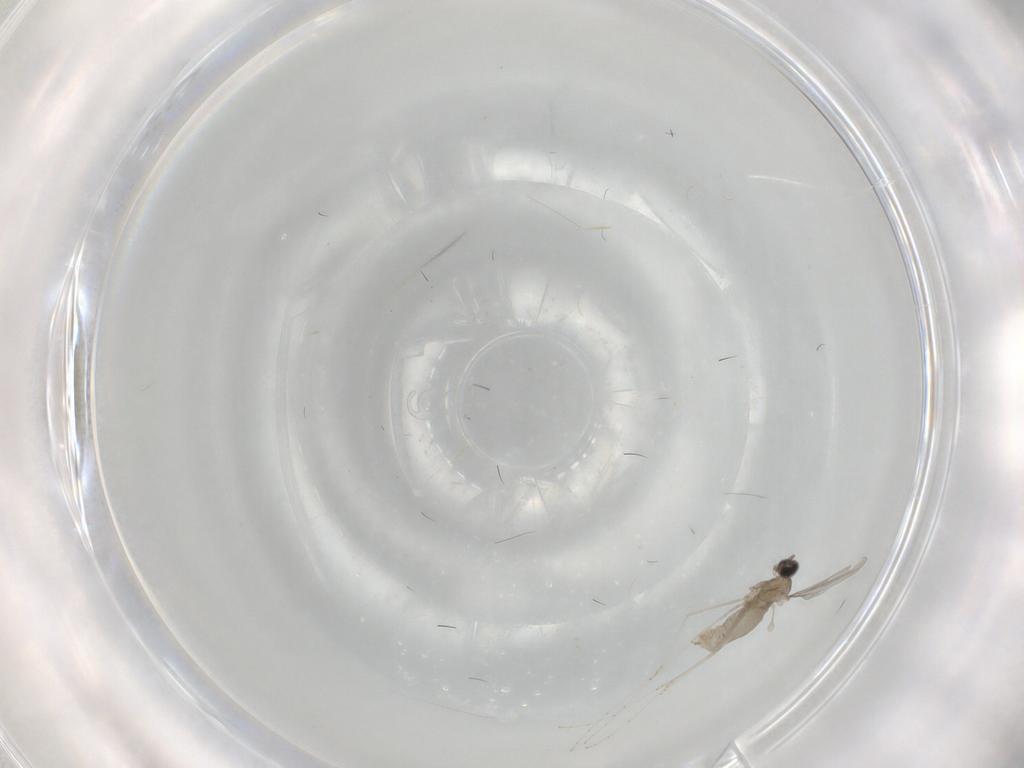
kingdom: Animalia
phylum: Arthropoda
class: Insecta
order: Diptera
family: Cecidomyiidae
